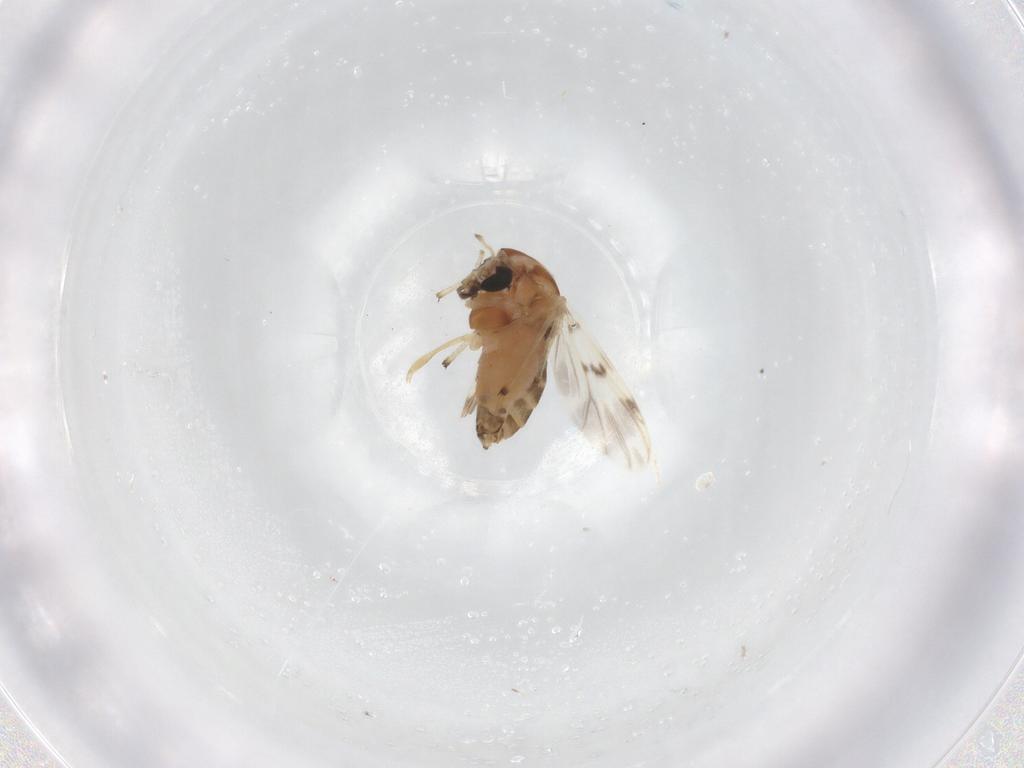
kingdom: Animalia
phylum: Arthropoda
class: Insecta
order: Diptera
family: Chironomidae
